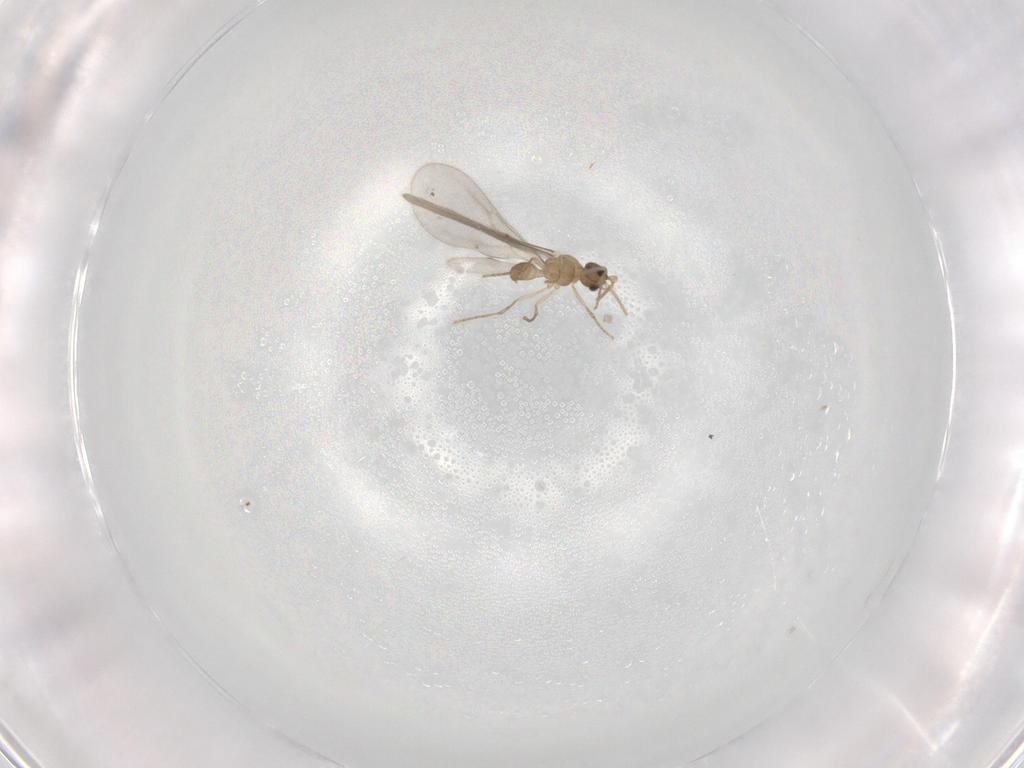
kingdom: Animalia
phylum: Arthropoda
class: Insecta
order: Hymenoptera
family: Formicidae
